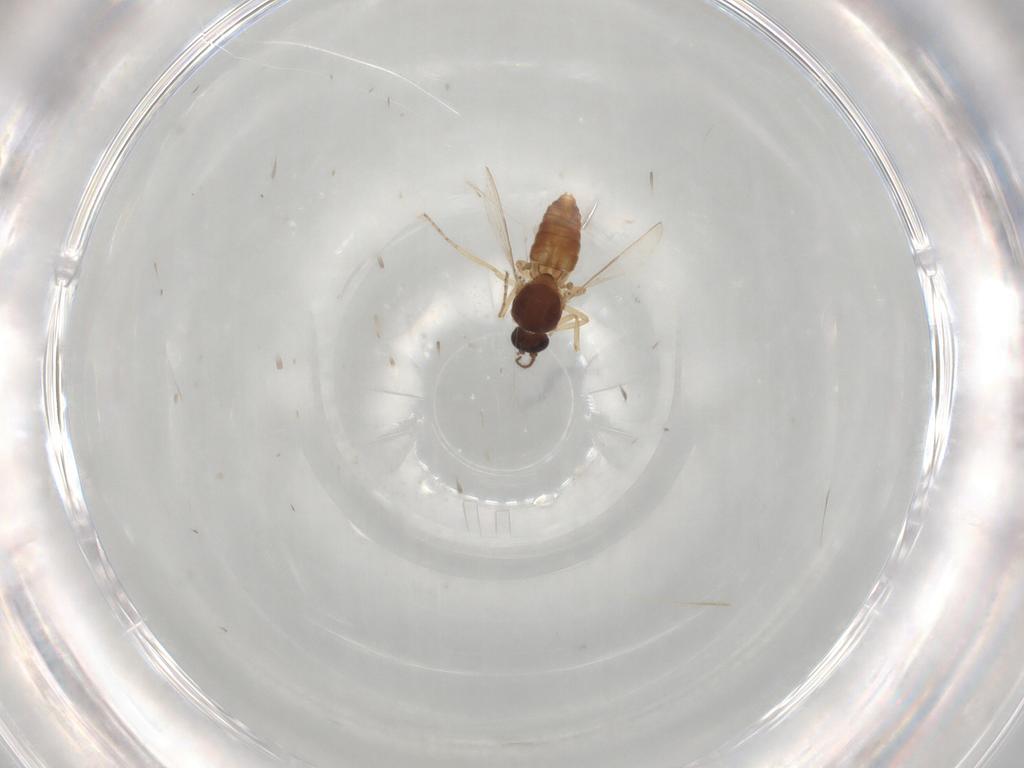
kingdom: Animalia
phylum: Arthropoda
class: Insecta
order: Diptera
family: Ceratopogonidae
